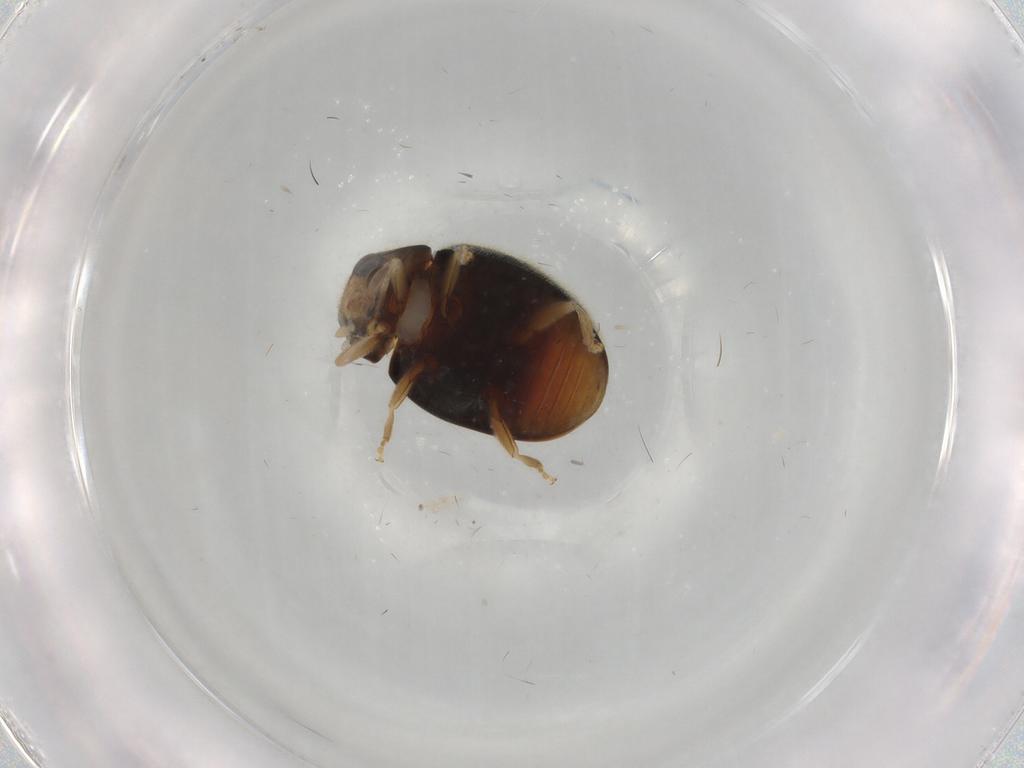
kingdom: Animalia
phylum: Arthropoda
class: Insecta
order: Coleoptera
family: Coccinellidae
